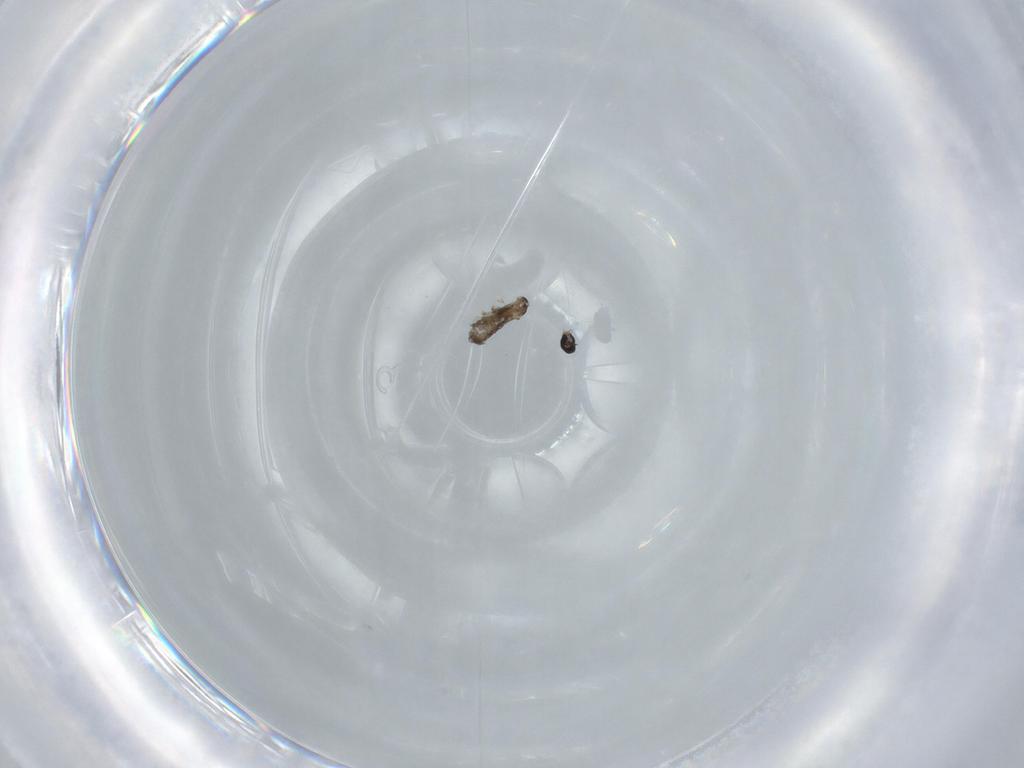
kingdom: Animalia
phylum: Arthropoda
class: Insecta
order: Diptera
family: Cecidomyiidae
